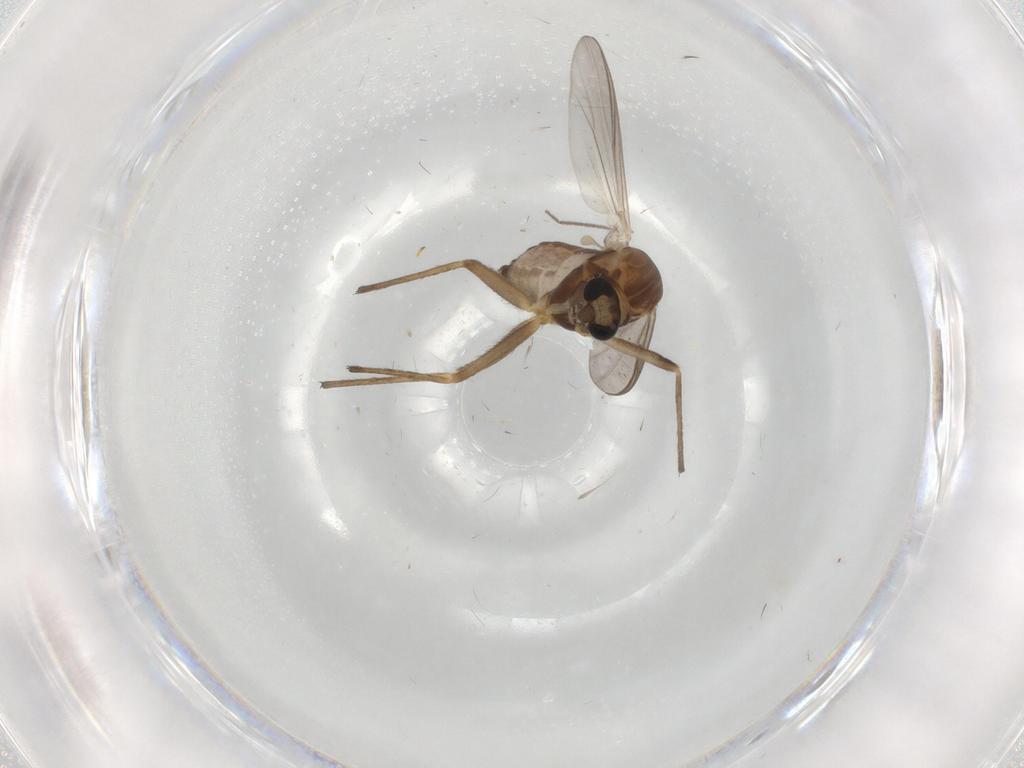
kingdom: Animalia
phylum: Arthropoda
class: Insecta
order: Diptera
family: Chironomidae
